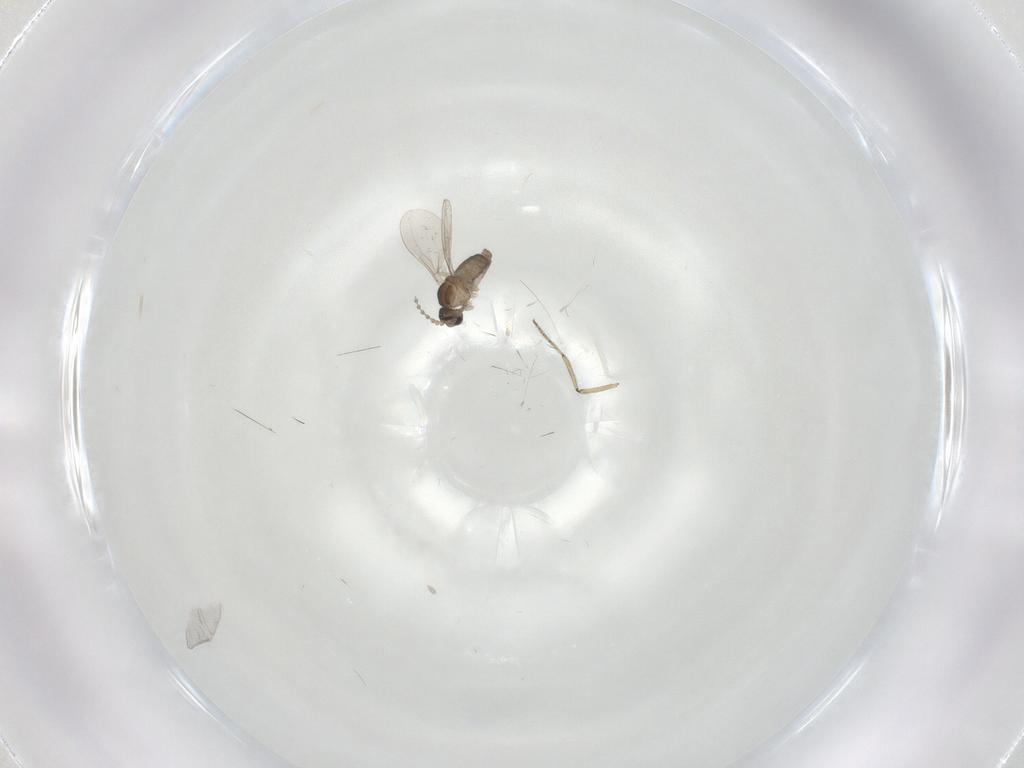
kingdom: Animalia
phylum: Arthropoda
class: Insecta
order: Diptera
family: Cecidomyiidae
